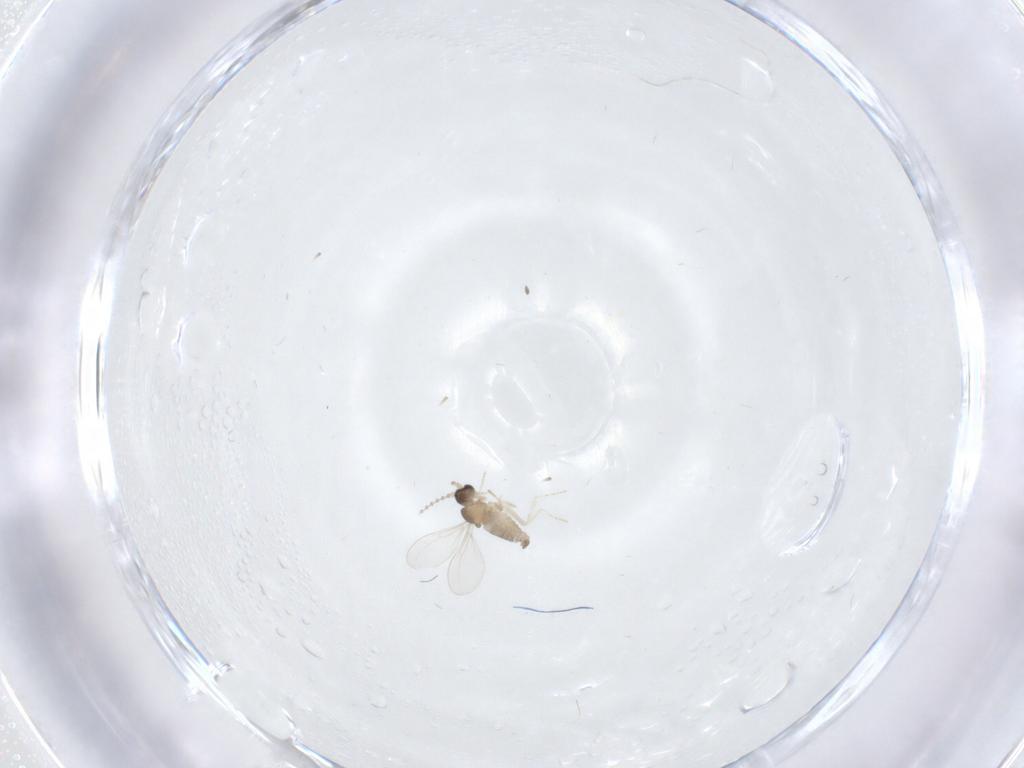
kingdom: Animalia
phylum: Arthropoda
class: Insecta
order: Diptera
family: Cecidomyiidae
